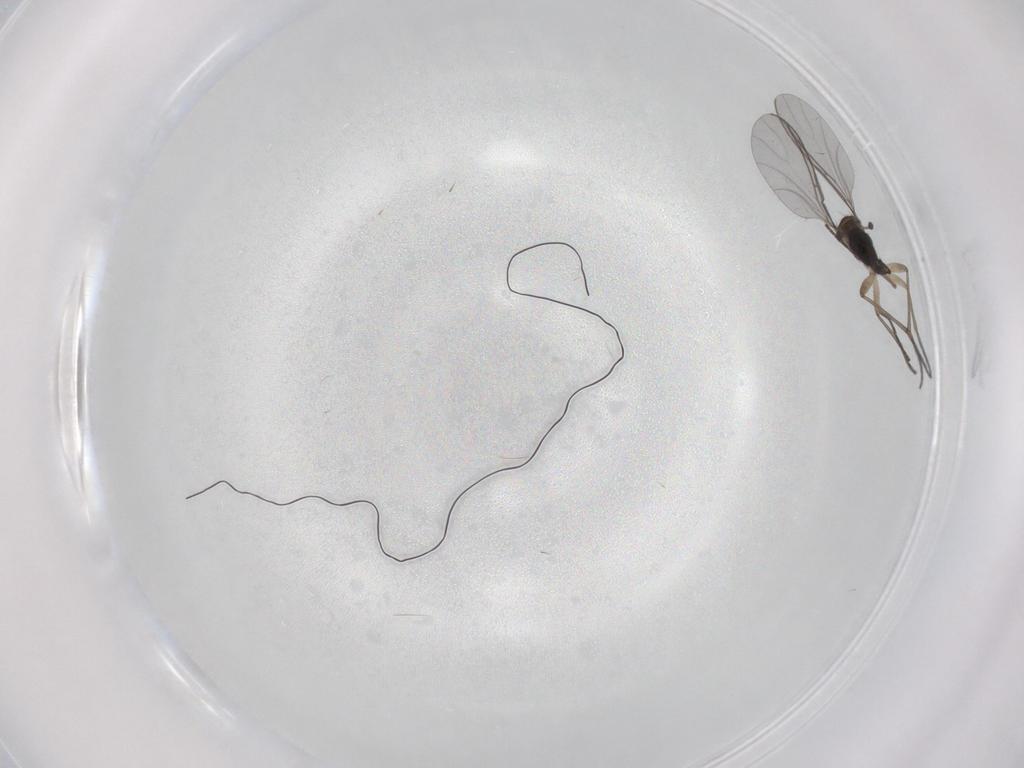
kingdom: Animalia
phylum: Arthropoda
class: Insecta
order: Diptera
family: Sciaridae
